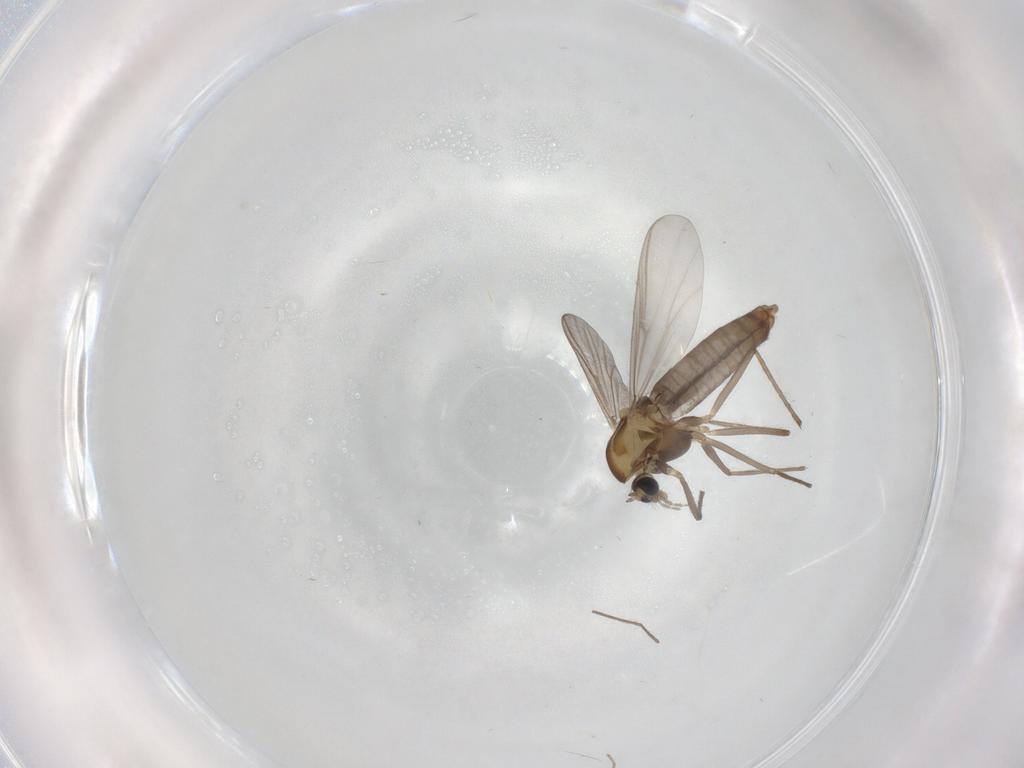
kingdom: Animalia
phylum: Arthropoda
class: Insecta
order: Diptera
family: Chironomidae
